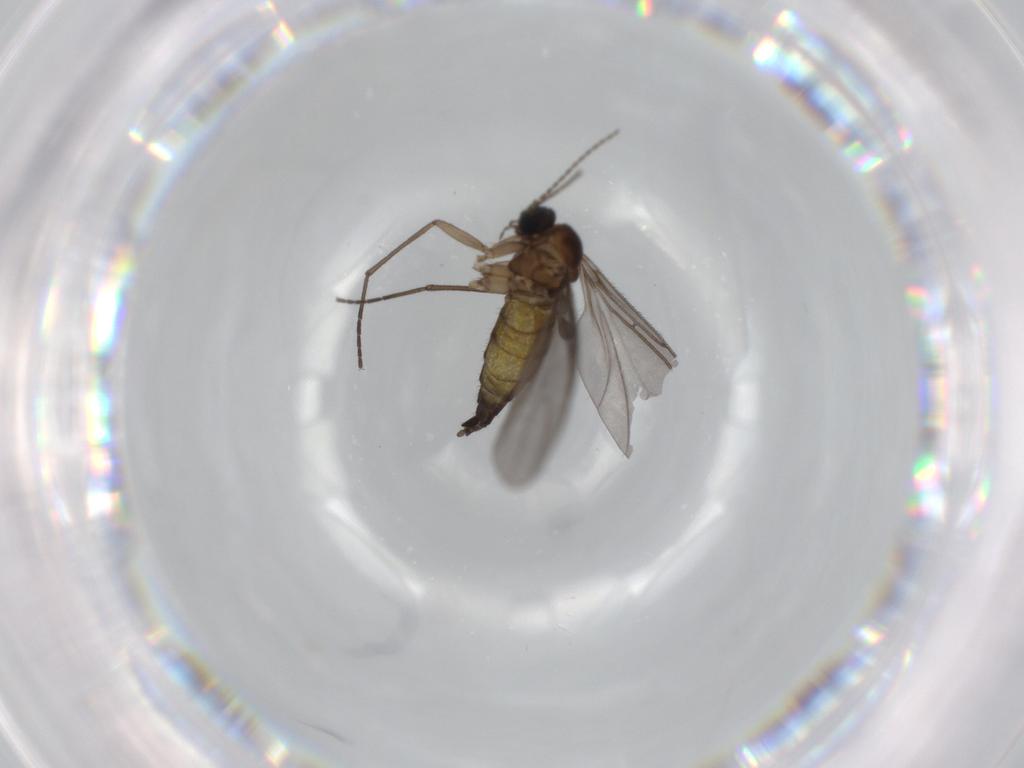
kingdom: Animalia
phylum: Arthropoda
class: Insecta
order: Diptera
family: Sciaridae
